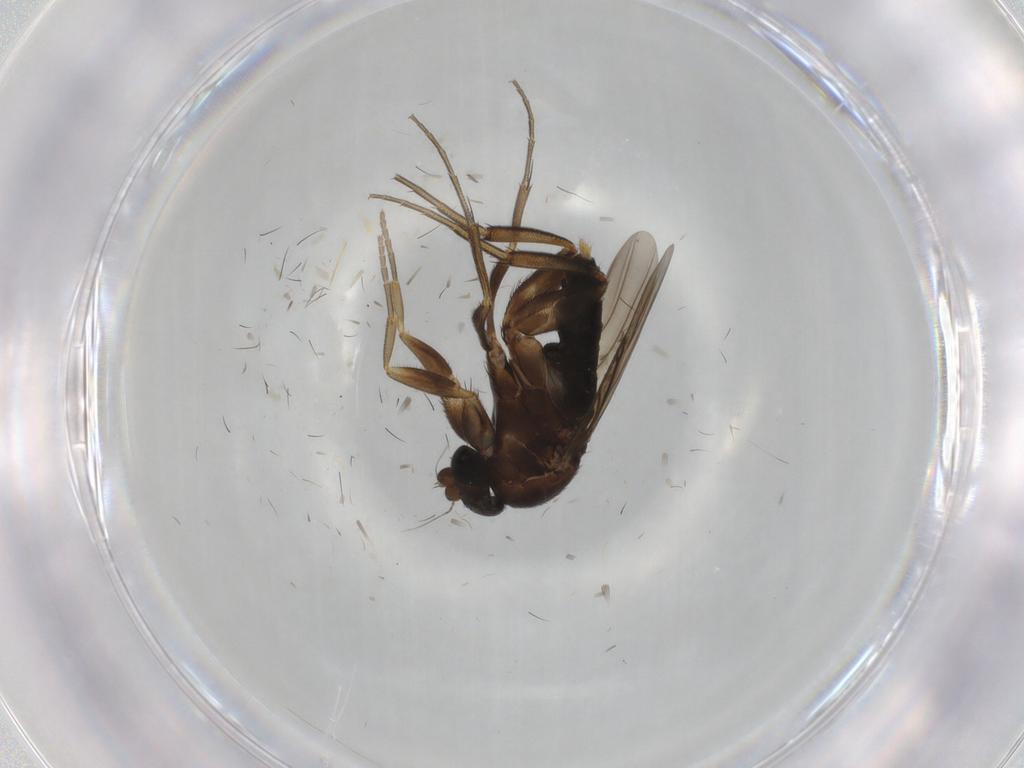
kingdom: Animalia
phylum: Arthropoda
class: Insecta
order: Diptera
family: Phoridae
